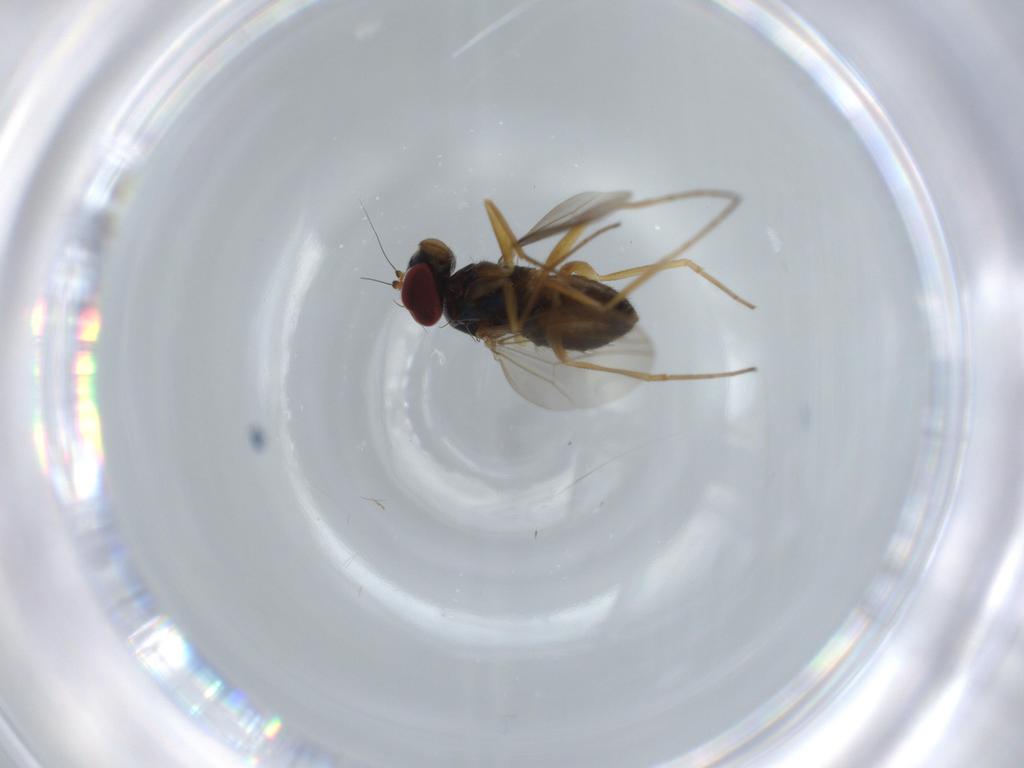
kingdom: Animalia
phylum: Arthropoda
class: Insecta
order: Diptera
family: Dolichopodidae
